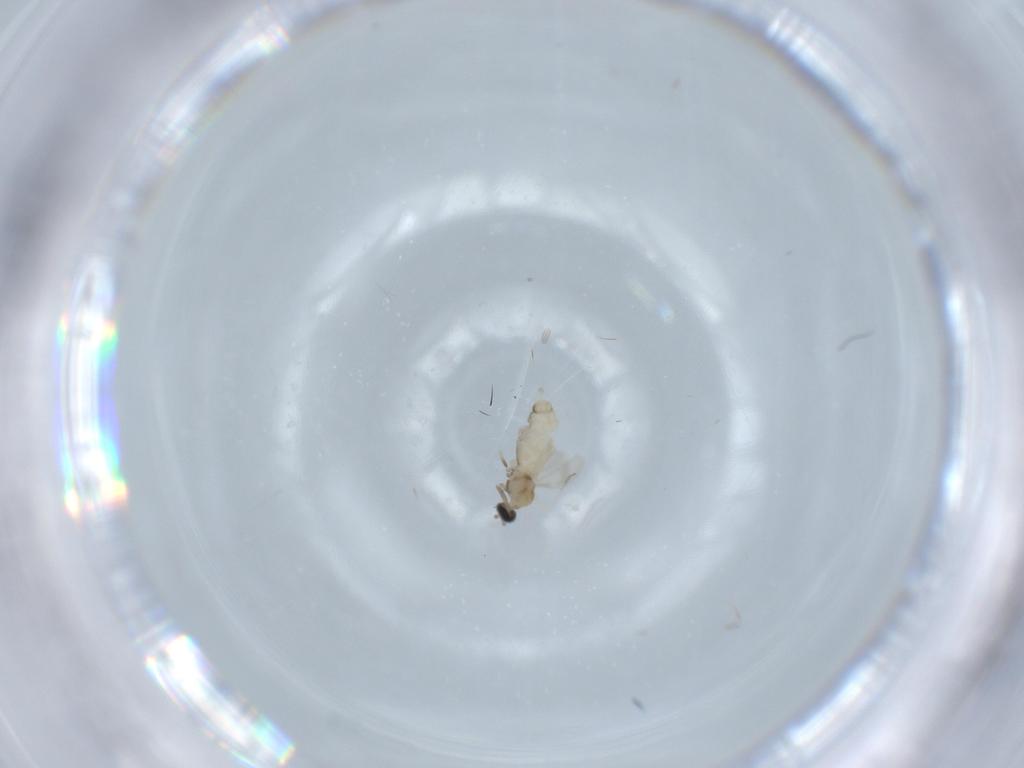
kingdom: Animalia
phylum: Arthropoda
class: Insecta
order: Diptera
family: Cecidomyiidae
